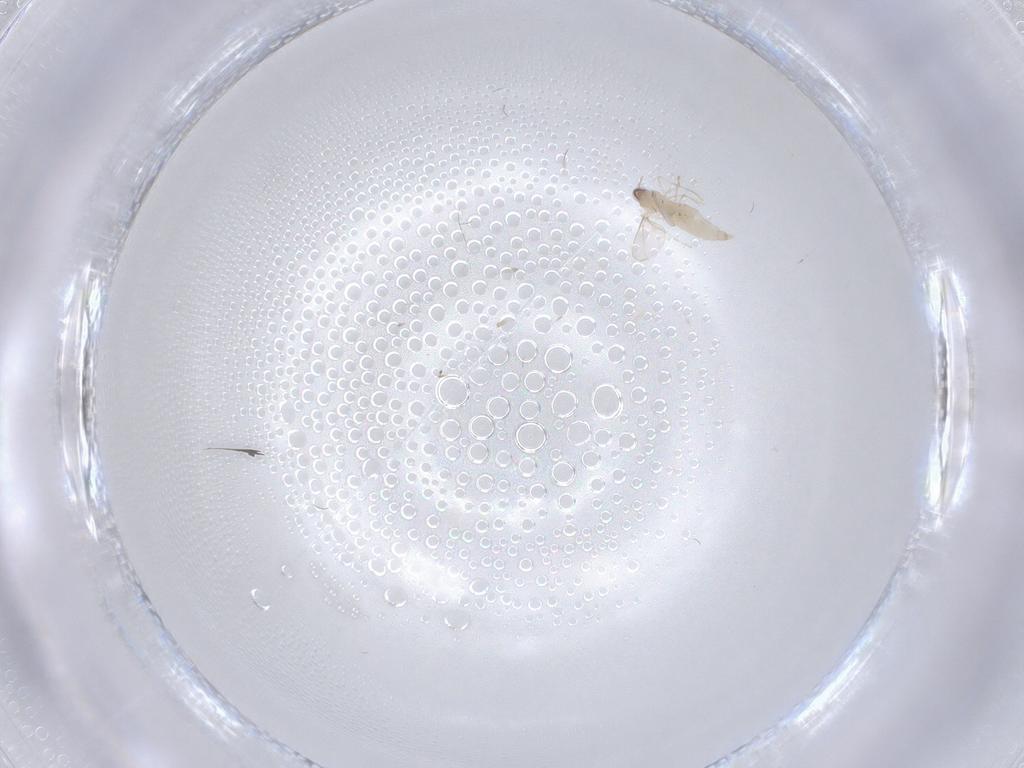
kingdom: Animalia
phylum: Arthropoda
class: Insecta
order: Diptera
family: Cecidomyiidae
